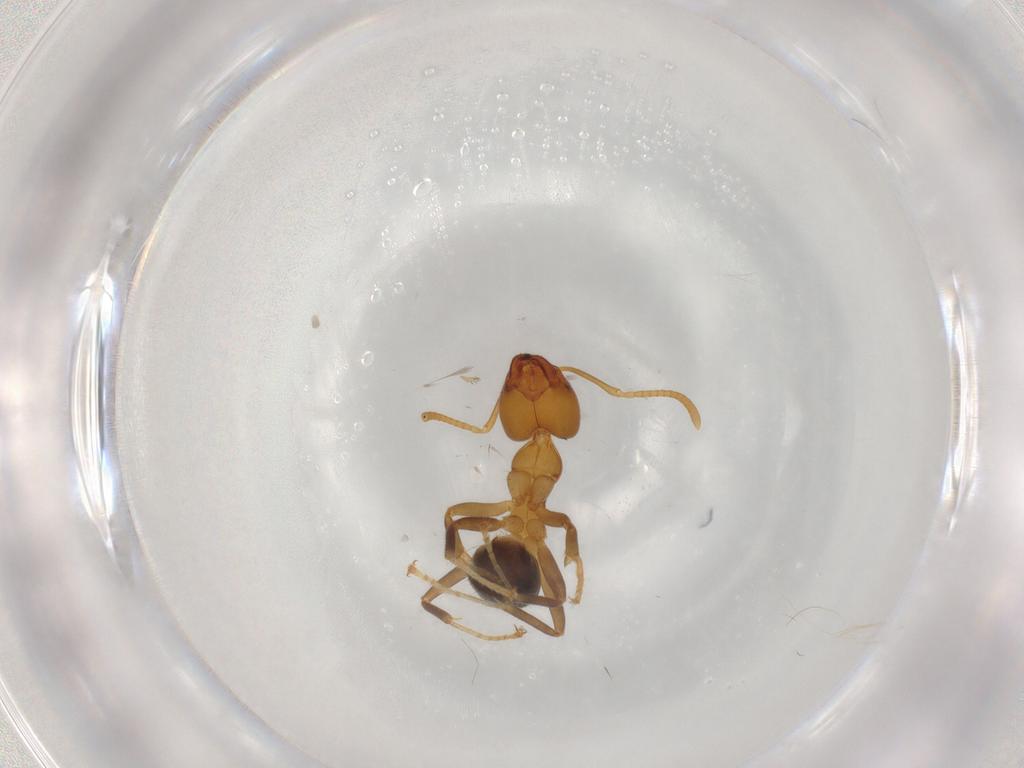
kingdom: Animalia
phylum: Arthropoda
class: Insecta
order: Hymenoptera
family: Formicidae
